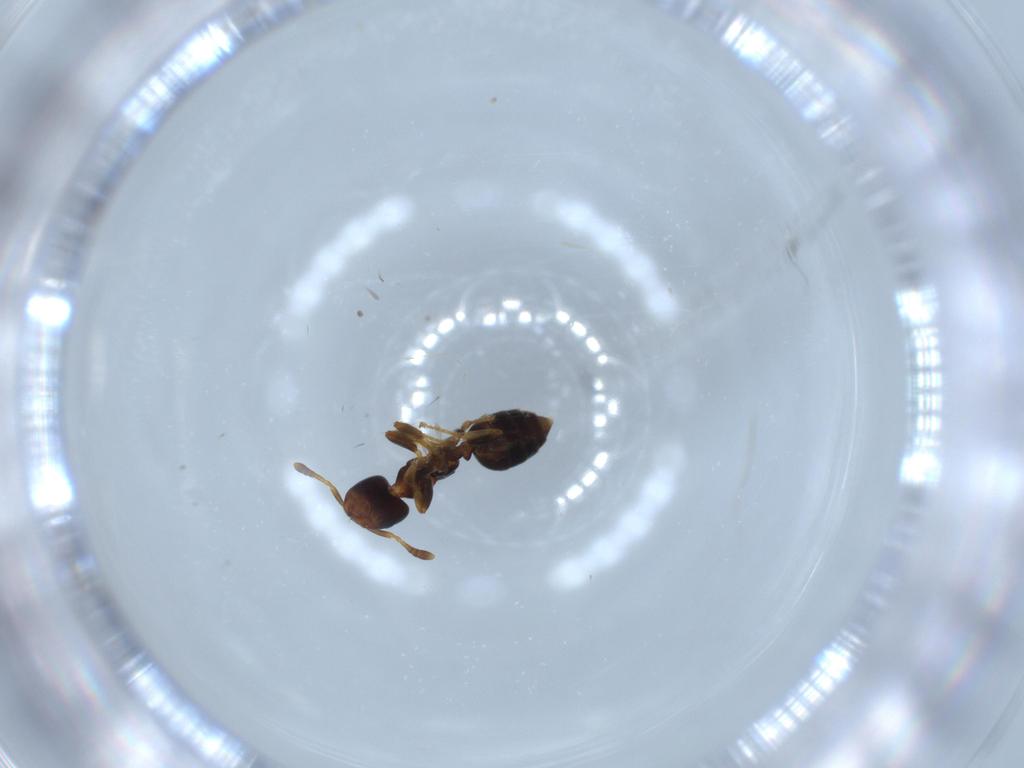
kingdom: Animalia
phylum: Arthropoda
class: Insecta
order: Hymenoptera
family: Formicidae
